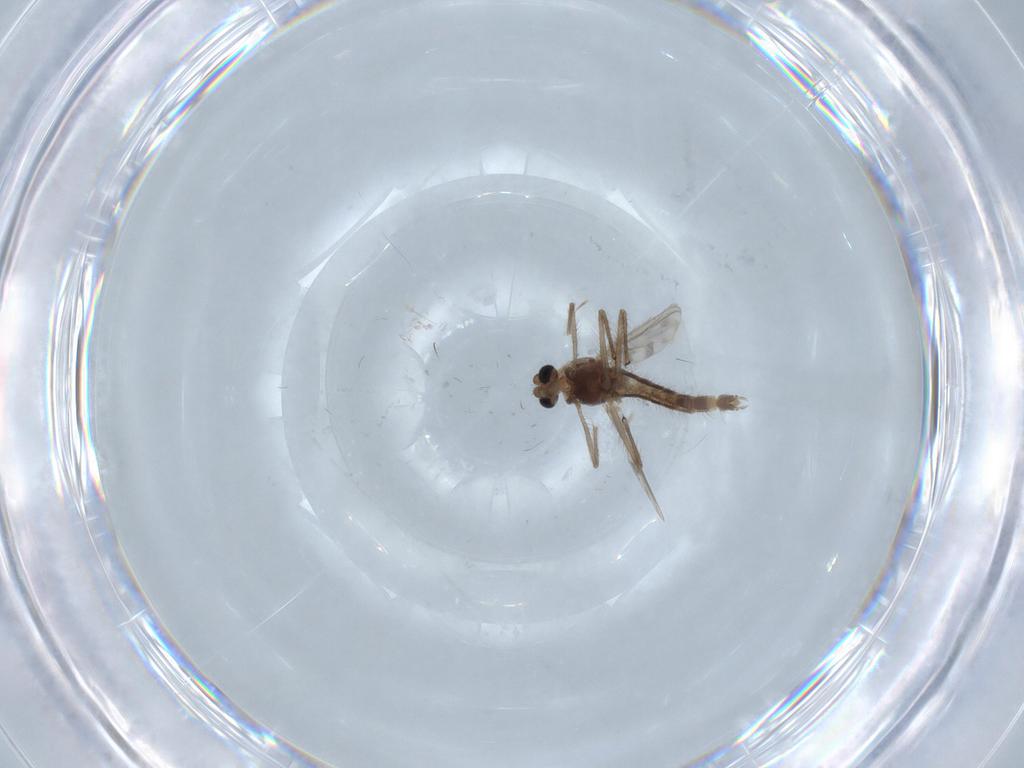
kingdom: Animalia
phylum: Arthropoda
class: Insecta
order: Diptera
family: Chironomidae
